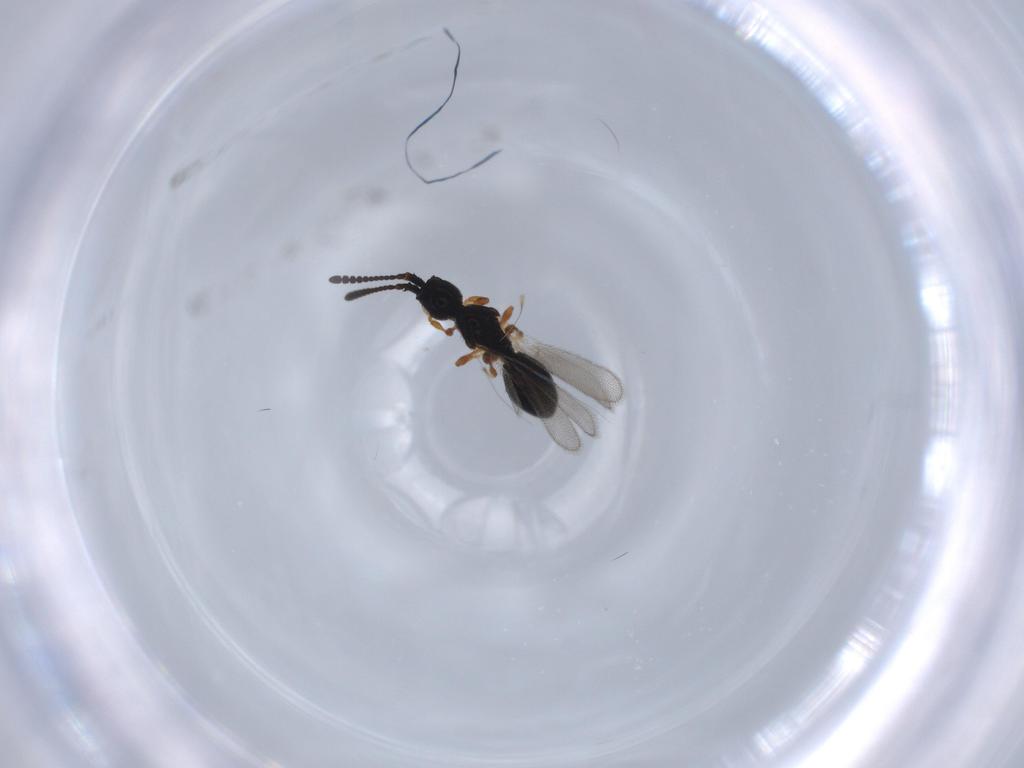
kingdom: Animalia
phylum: Arthropoda
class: Insecta
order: Hymenoptera
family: Diapriidae
